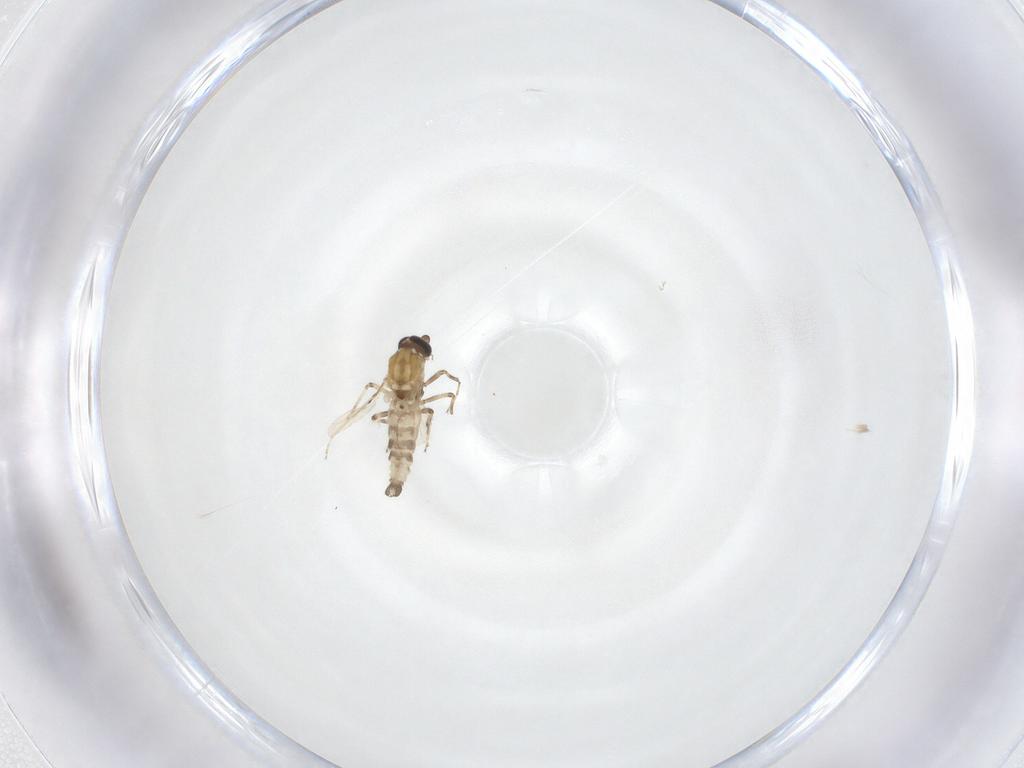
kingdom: Animalia
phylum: Arthropoda
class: Insecta
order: Diptera
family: Ceratopogonidae
